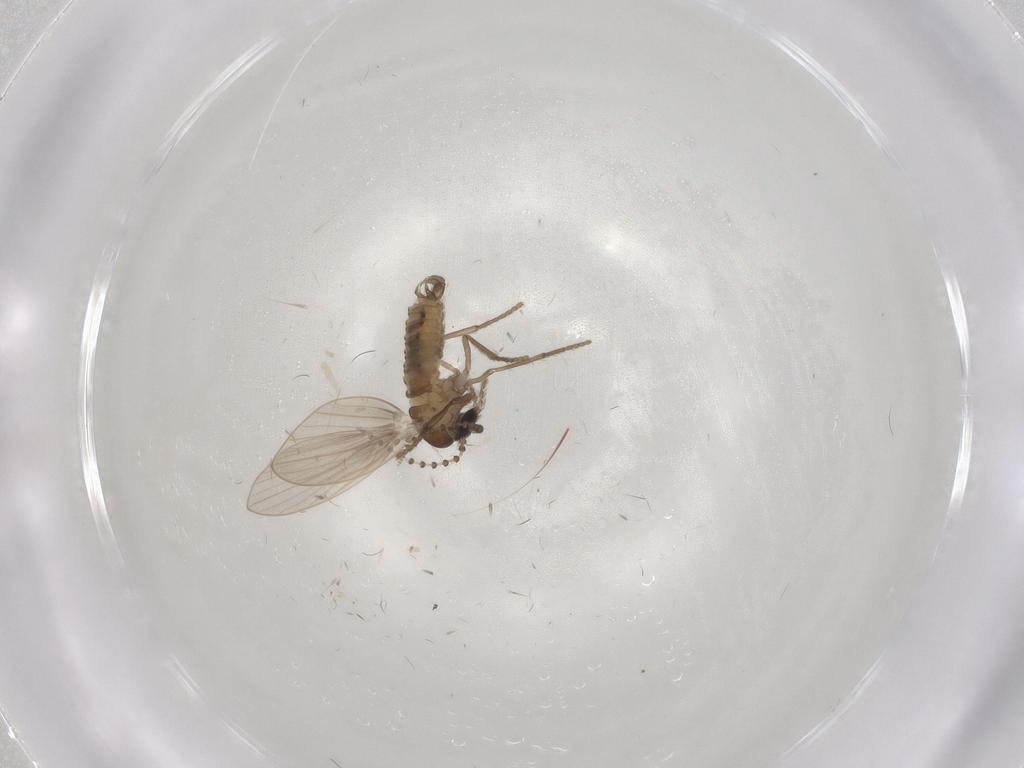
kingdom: Animalia
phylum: Arthropoda
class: Insecta
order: Diptera
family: Psychodidae
